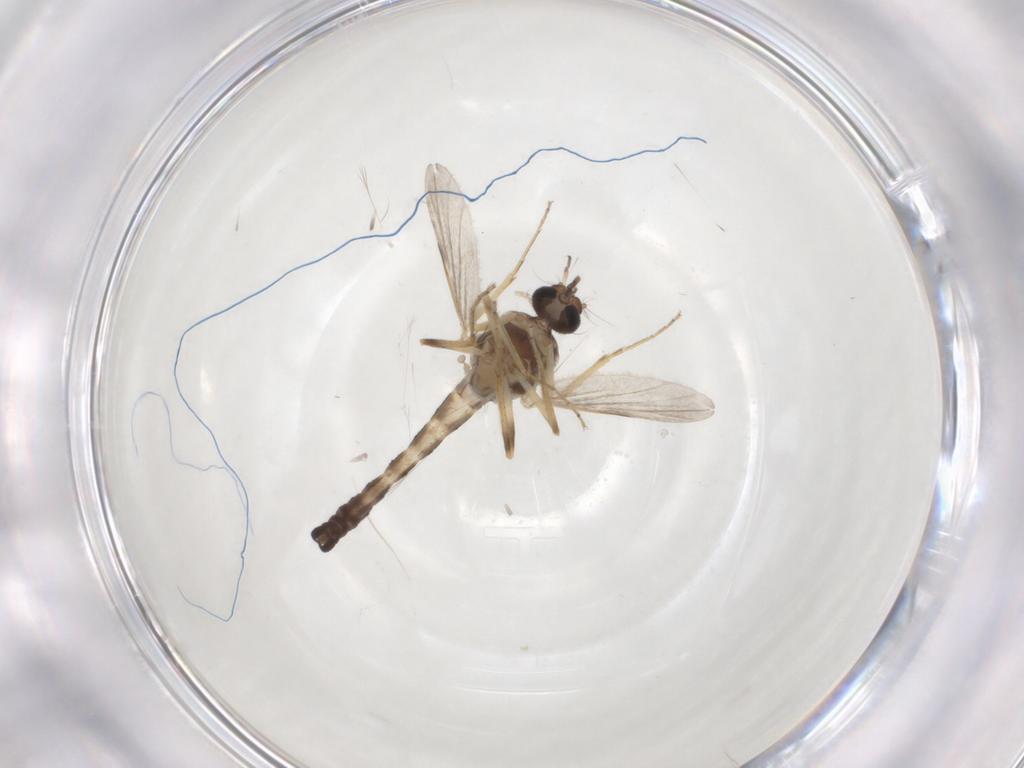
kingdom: Animalia
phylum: Arthropoda
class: Insecta
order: Diptera
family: Ceratopogonidae
